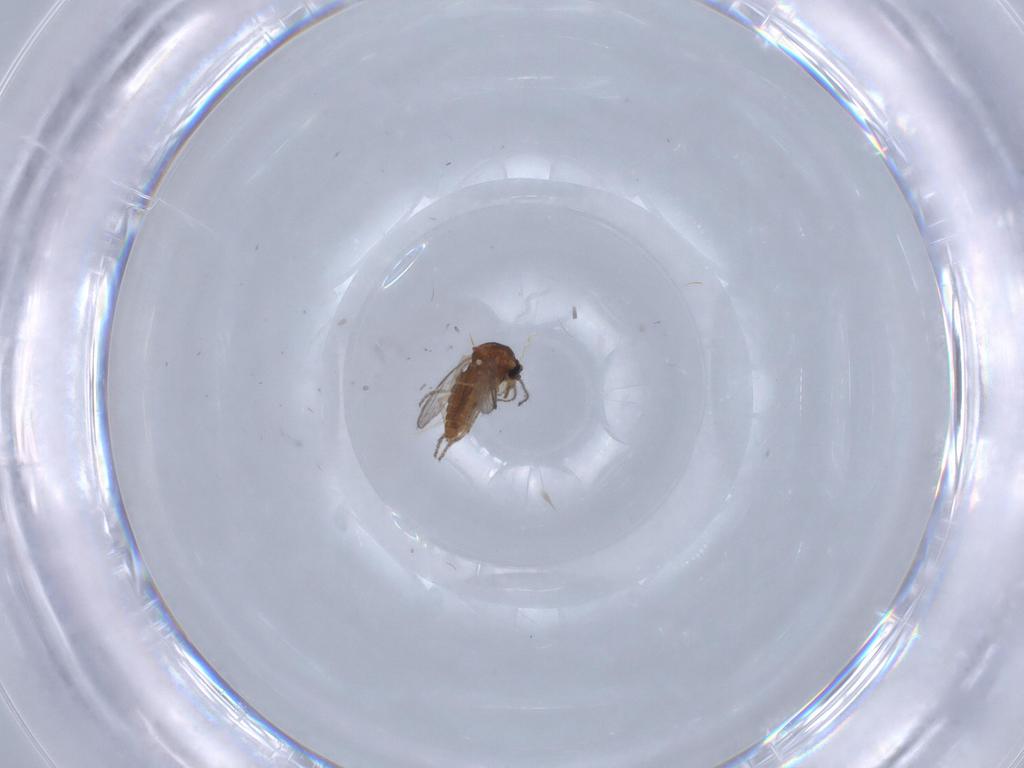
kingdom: Animalia
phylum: Arthropoda
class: Insecta
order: Diptera
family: Ceratopogonidae
